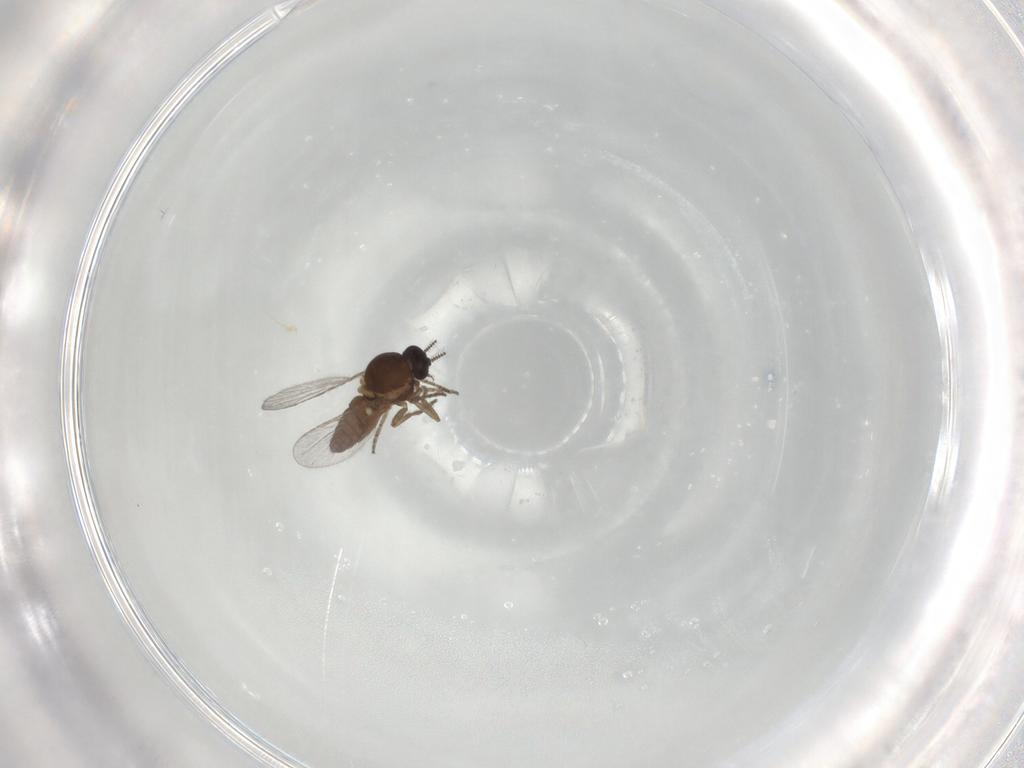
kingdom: Animalia
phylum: Arthropoda
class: Insecta
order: Diptera
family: Ceratopogonidae
